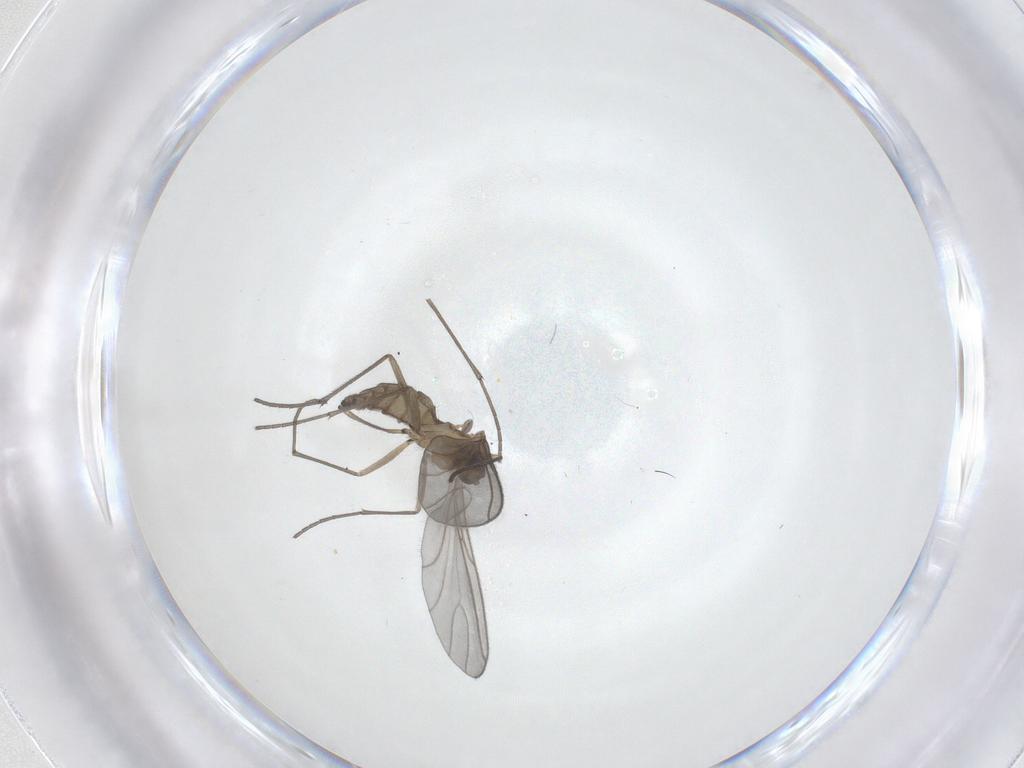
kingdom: Animalia
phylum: Arthropoda
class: Insecta
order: Diptera
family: Sciaridae
